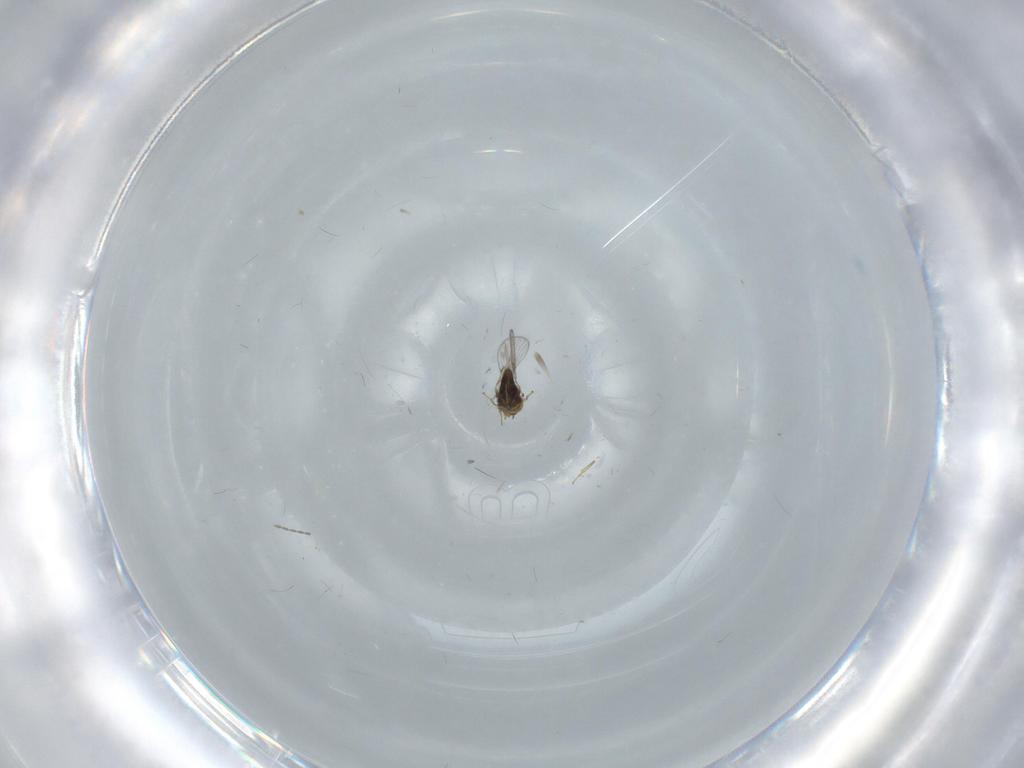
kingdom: Animalia
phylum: Arthropoda
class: Insecta
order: Hymenoptera
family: Trichogrammatidae
